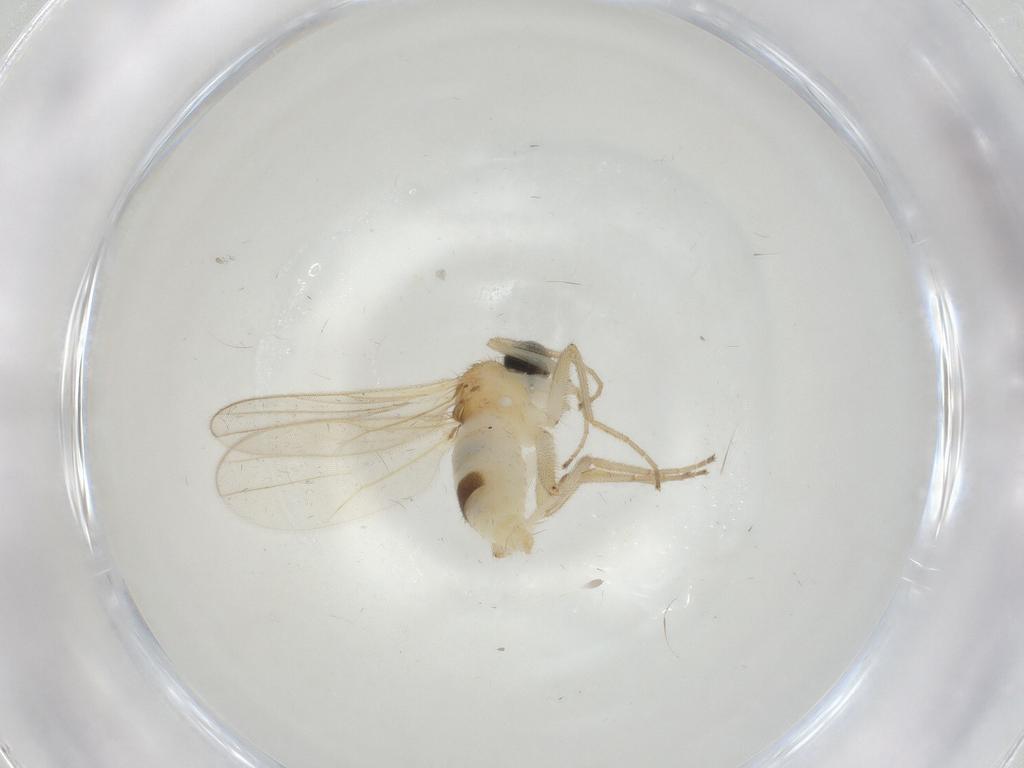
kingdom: Animalia
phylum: Arthropoda
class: Insecta
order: Diptera
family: Hybotidae
